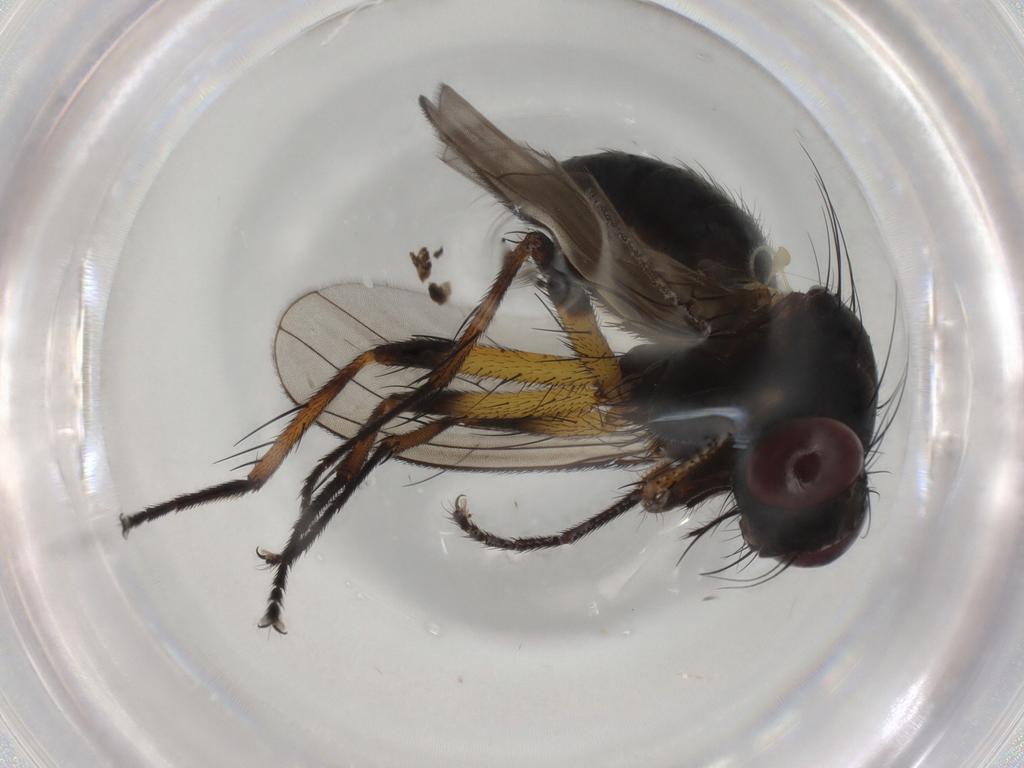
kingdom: Animalia
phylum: Arthropoda
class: Insecta
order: Diptera
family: Muscidae
